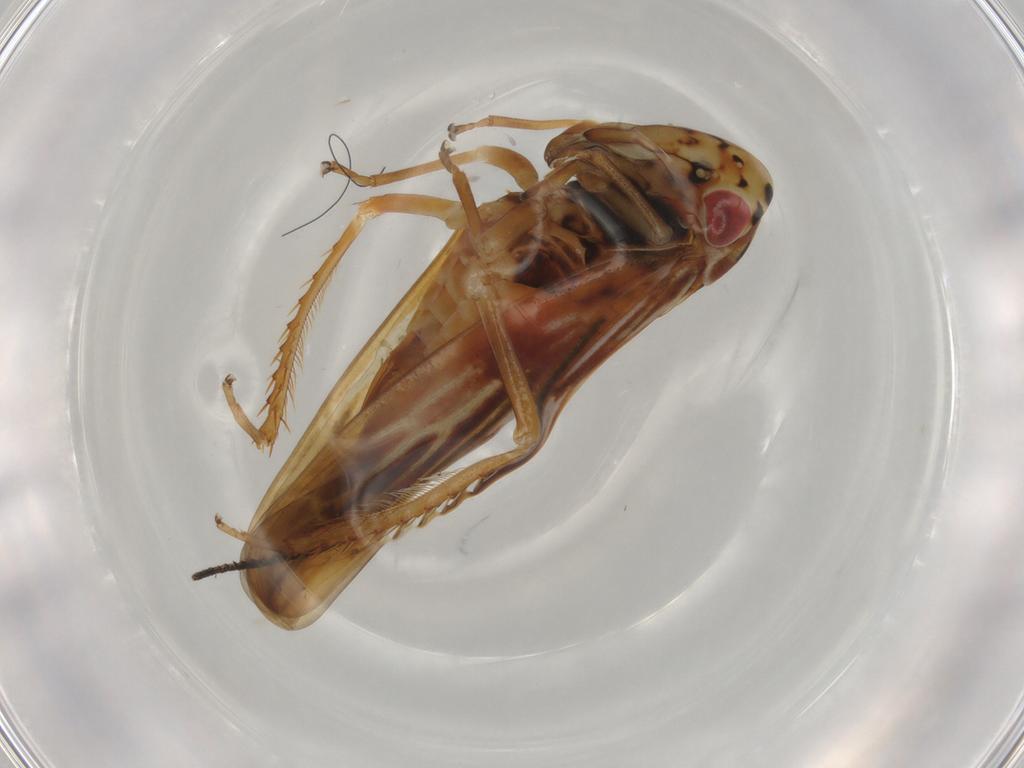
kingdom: Animalia
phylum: Arthropoda
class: Insecta
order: Hemiptera
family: Cicadellidae
